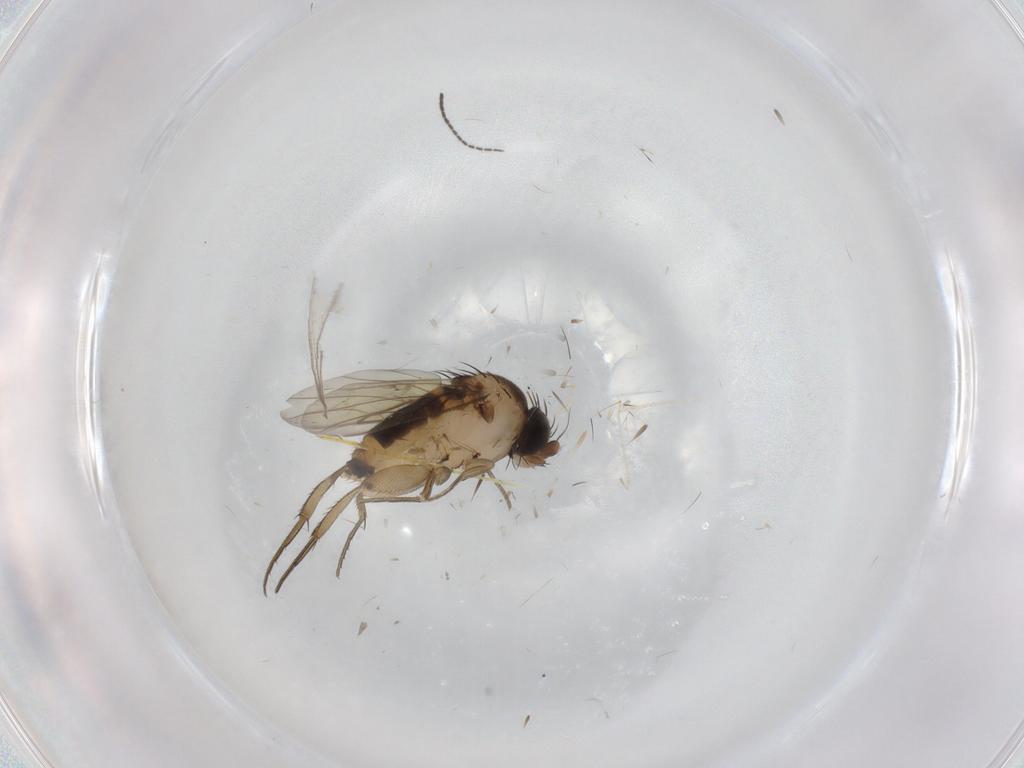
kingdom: Animalia
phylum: Arthropoda
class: Insecta
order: Diptera
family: Phoridae
